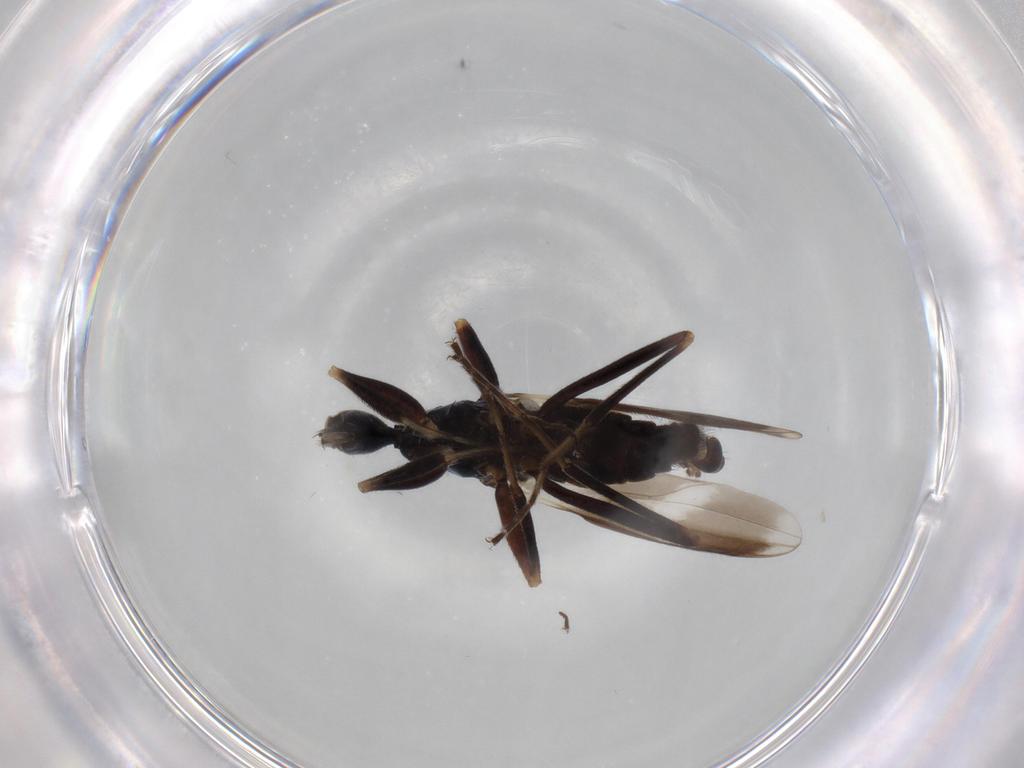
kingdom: Animalia
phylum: Arthropoda
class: Insecta
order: Diptera
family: Hybotidae
